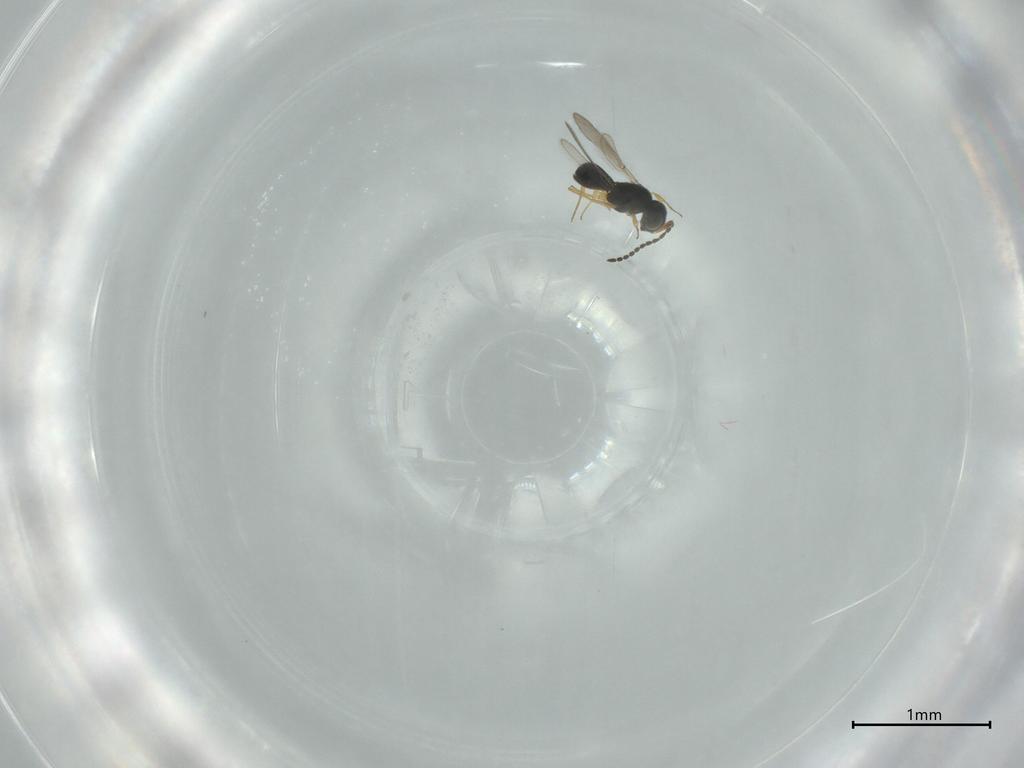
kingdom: Animalia
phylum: Arthropoda
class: Insecta
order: Hymenoptera
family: Scelionidae
